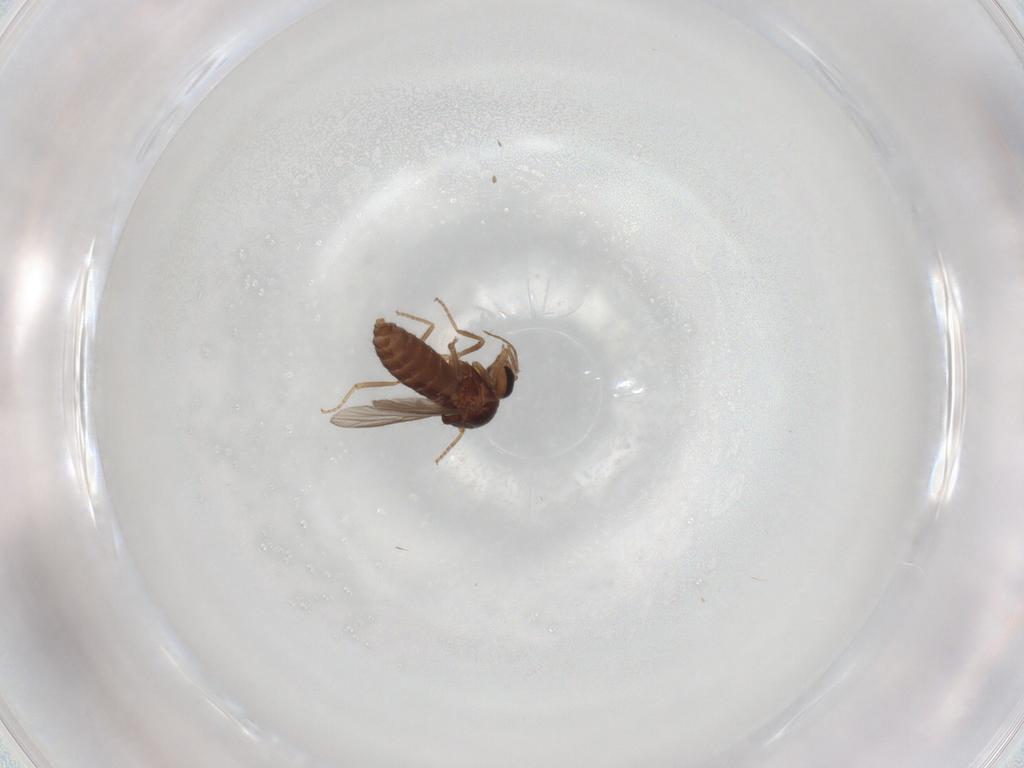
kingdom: Animalia
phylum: Arthropoda
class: Insecta
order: Diptera
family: Ceratopogonidae
